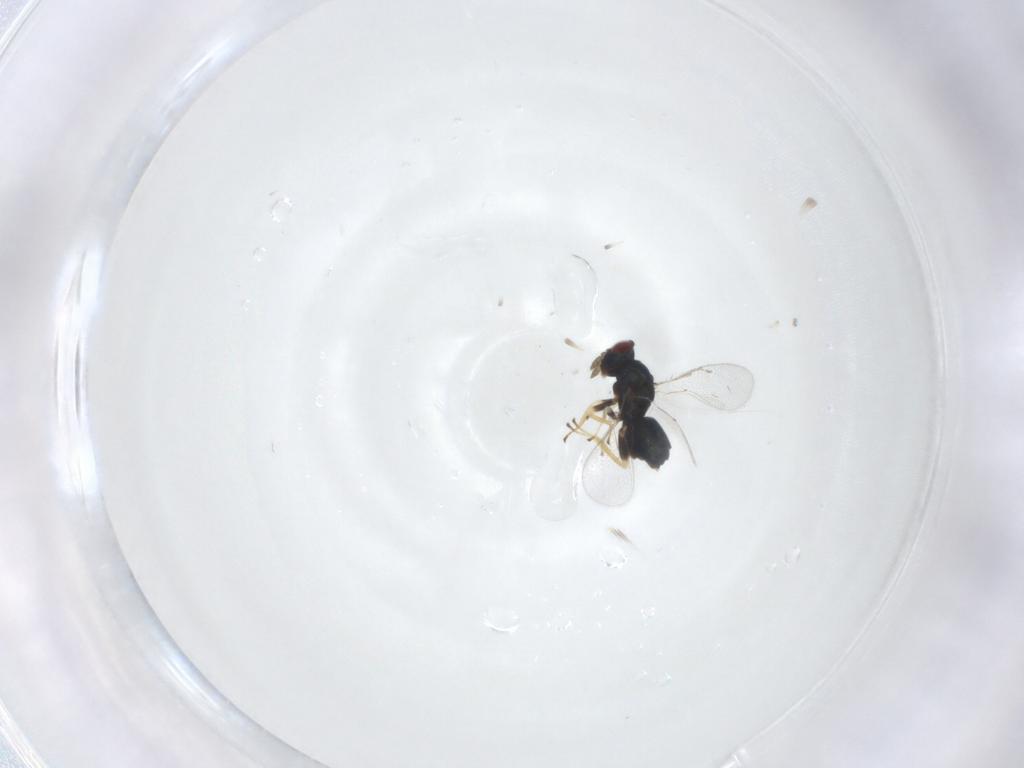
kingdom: Animalia
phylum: Arthropoda
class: Insecta
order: Hymenoptera
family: Eulophidae
